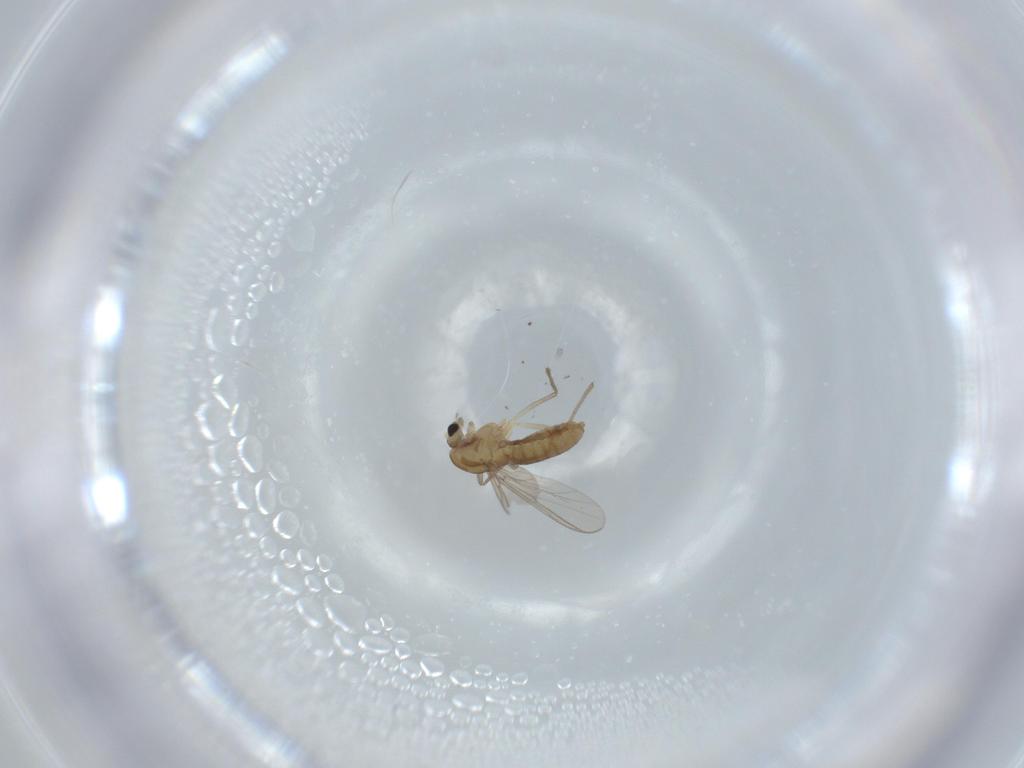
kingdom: Animalia
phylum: Arthropoda
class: Insecta
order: Diptera
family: Chironomidae
